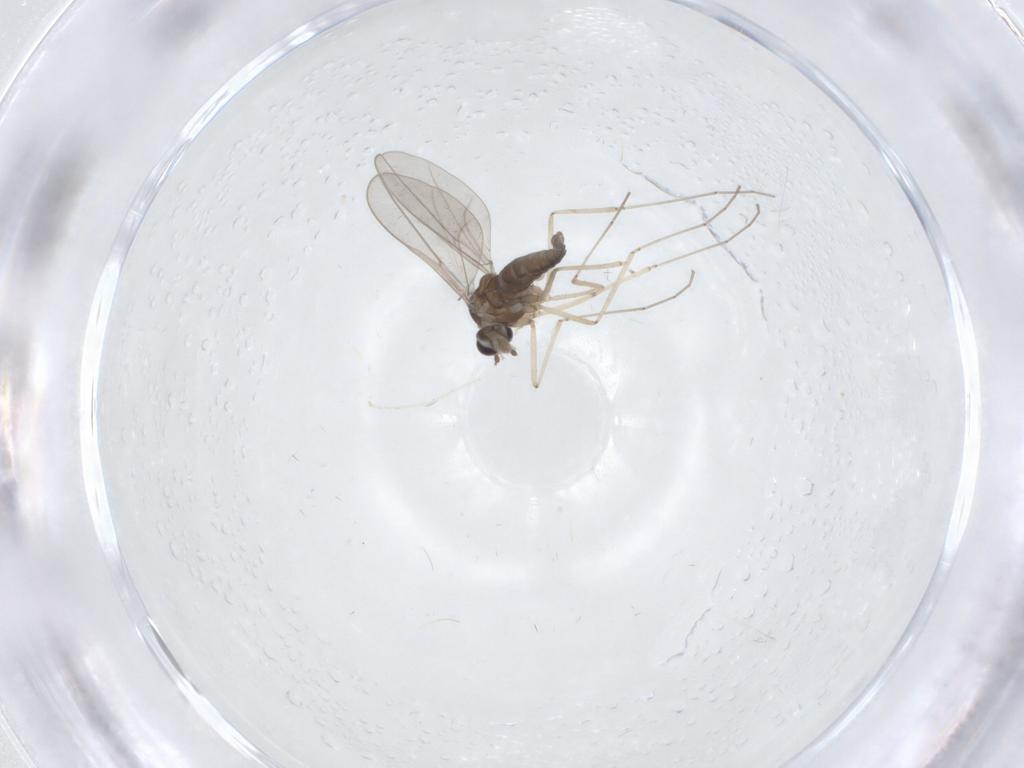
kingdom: Animalia
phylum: Arthropoda
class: Insecta
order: Diptera
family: Cecidomyiidae
